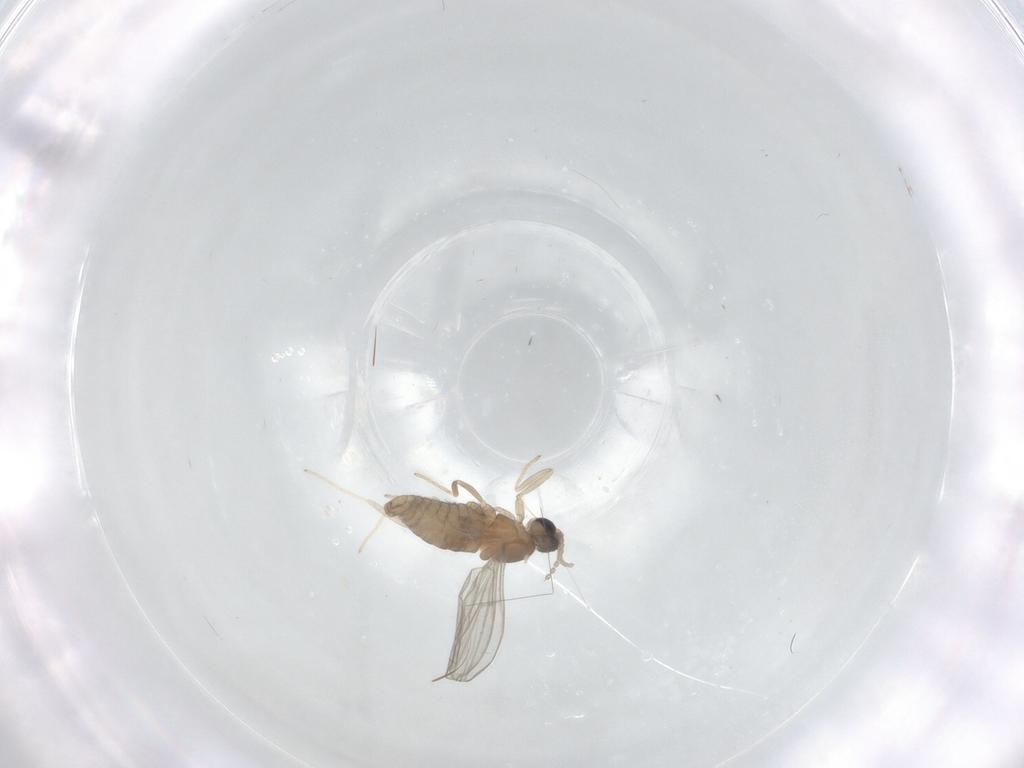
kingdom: Animalia
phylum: Arthropoda
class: Insecta
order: Diptera
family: Cecidomyiidae
